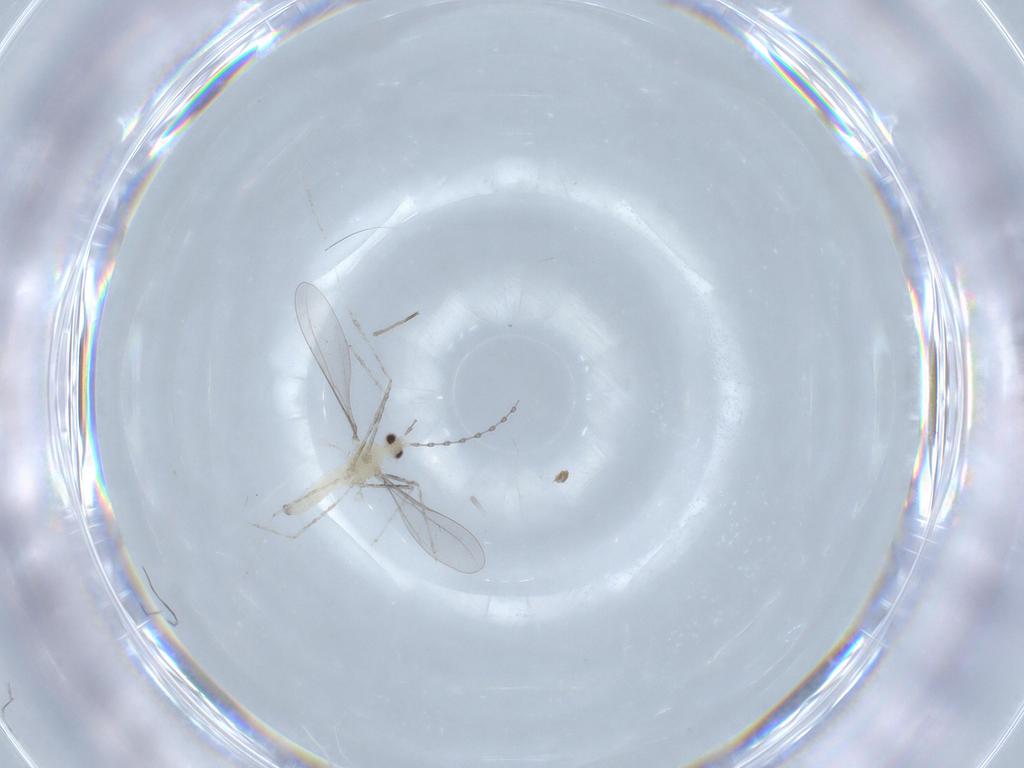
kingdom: Animalia
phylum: Arthropoda
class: Insecta
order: Diptera
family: Cecidomyiidae
